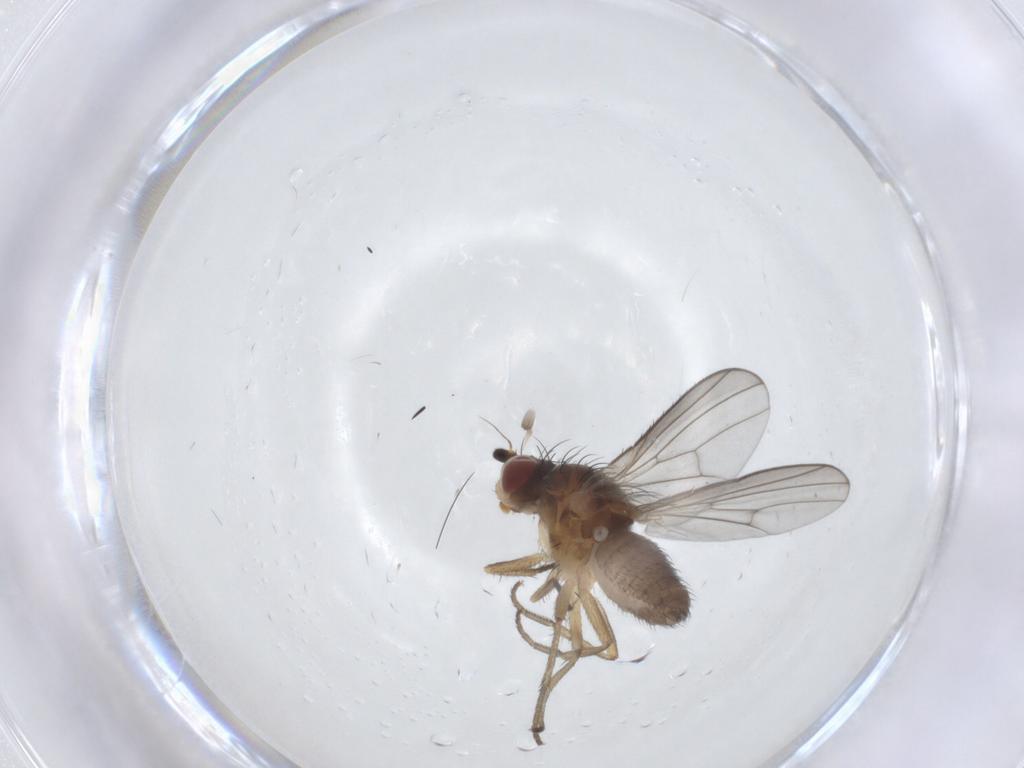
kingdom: Animalia
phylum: Arthropoda
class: Insecta
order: Diptera
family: Heleomyzidae
